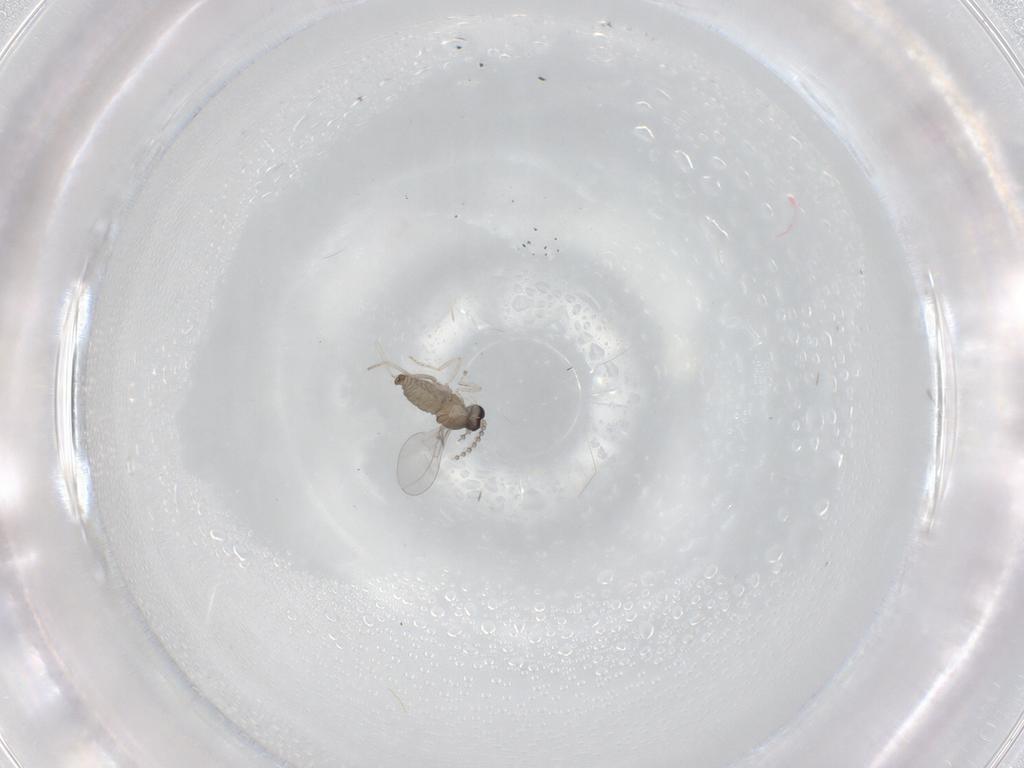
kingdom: Animalia
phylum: Arthropoda
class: Insecta
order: Diptera
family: Cecidomyiidae
